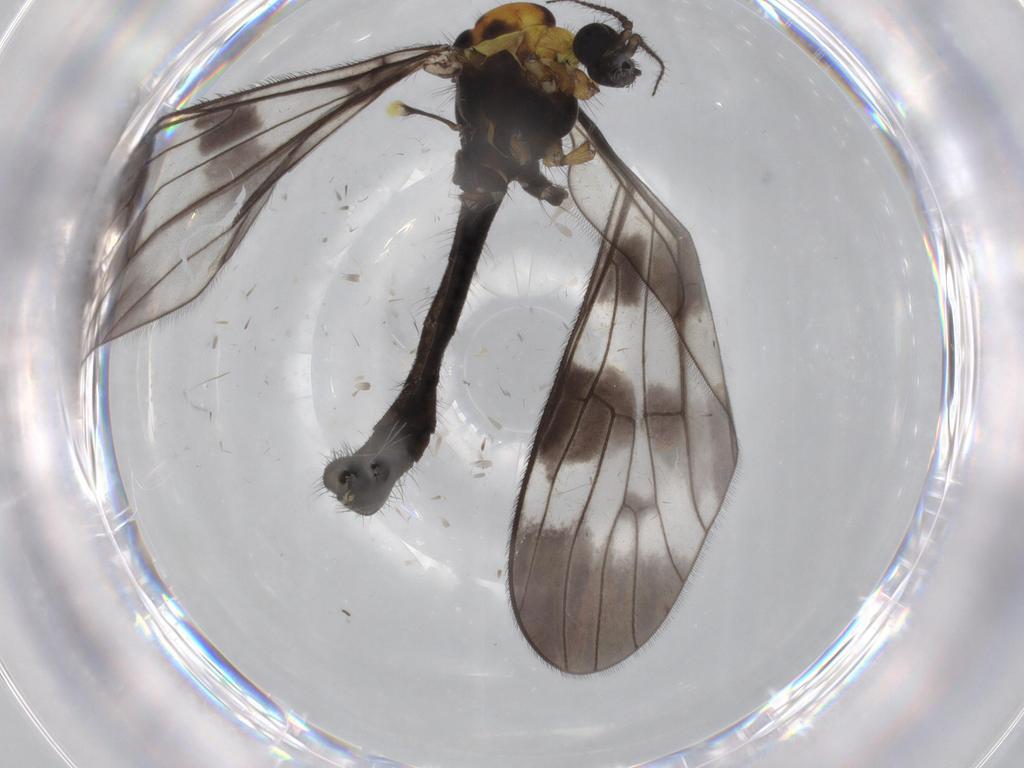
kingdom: Animalia
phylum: Arthropoda
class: Insecta
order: Diptera
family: Limoniidae
